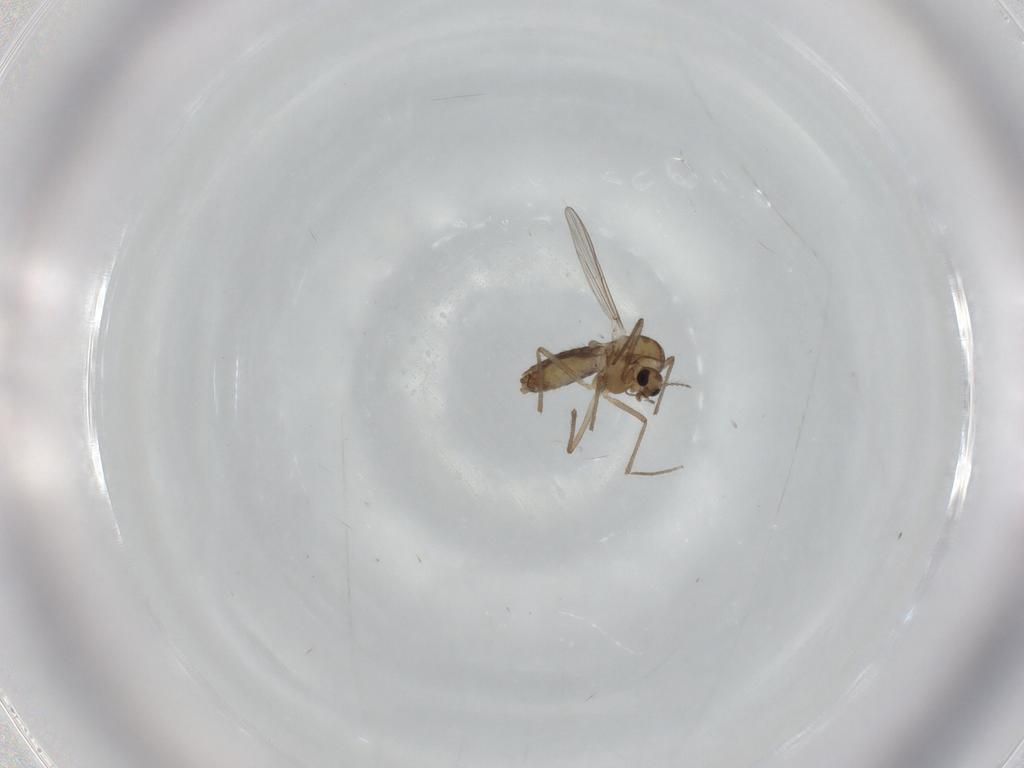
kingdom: Animalia
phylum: Arthropoda
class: Insecta
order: Diptera
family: Chironomidae
